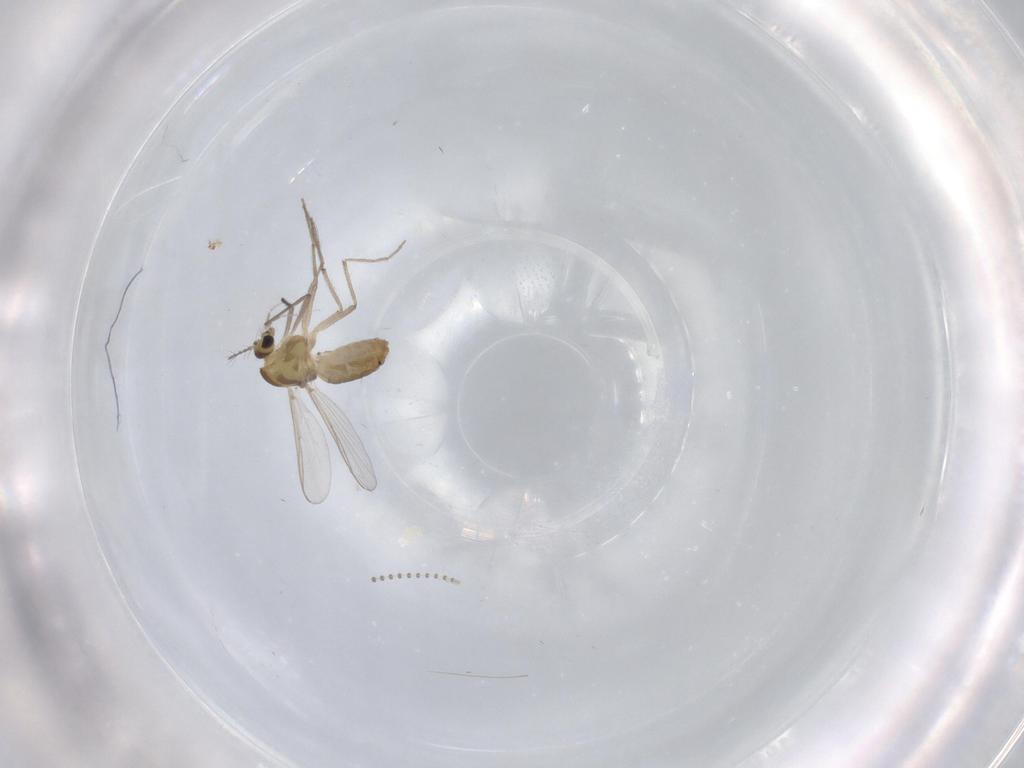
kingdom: Animalia
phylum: Arthropoda
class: Insecta
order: Diptera
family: Chironomidae
